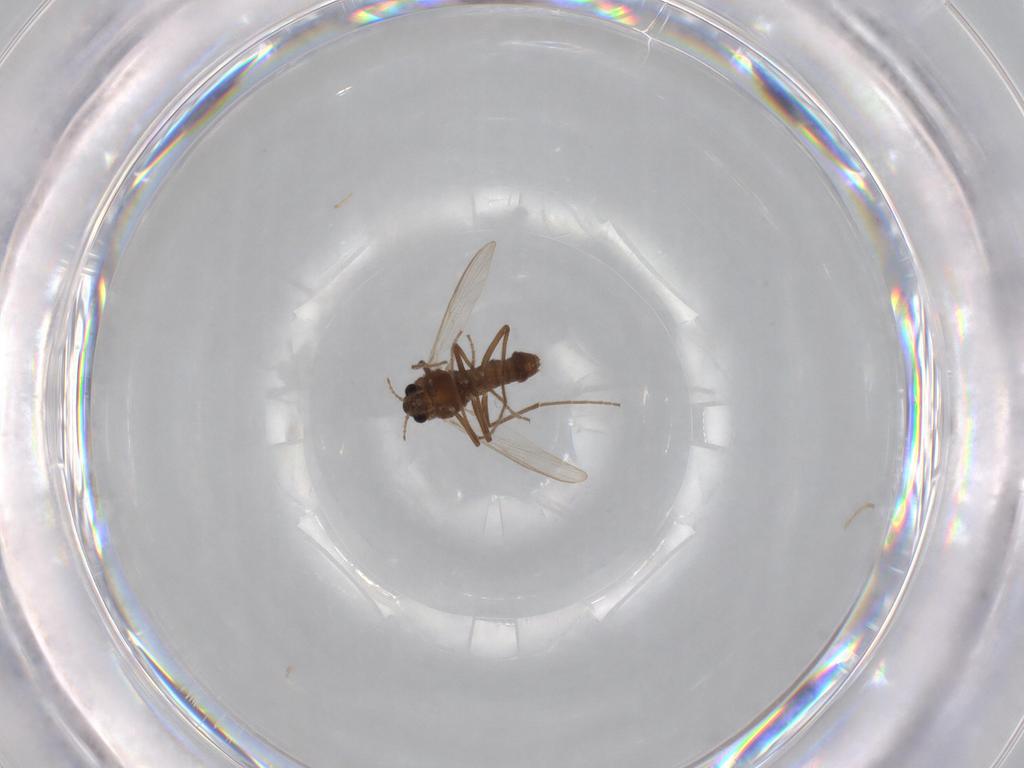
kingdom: Animalia
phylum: Arthropoda
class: Insecta
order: Diptera
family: Chironomidae
